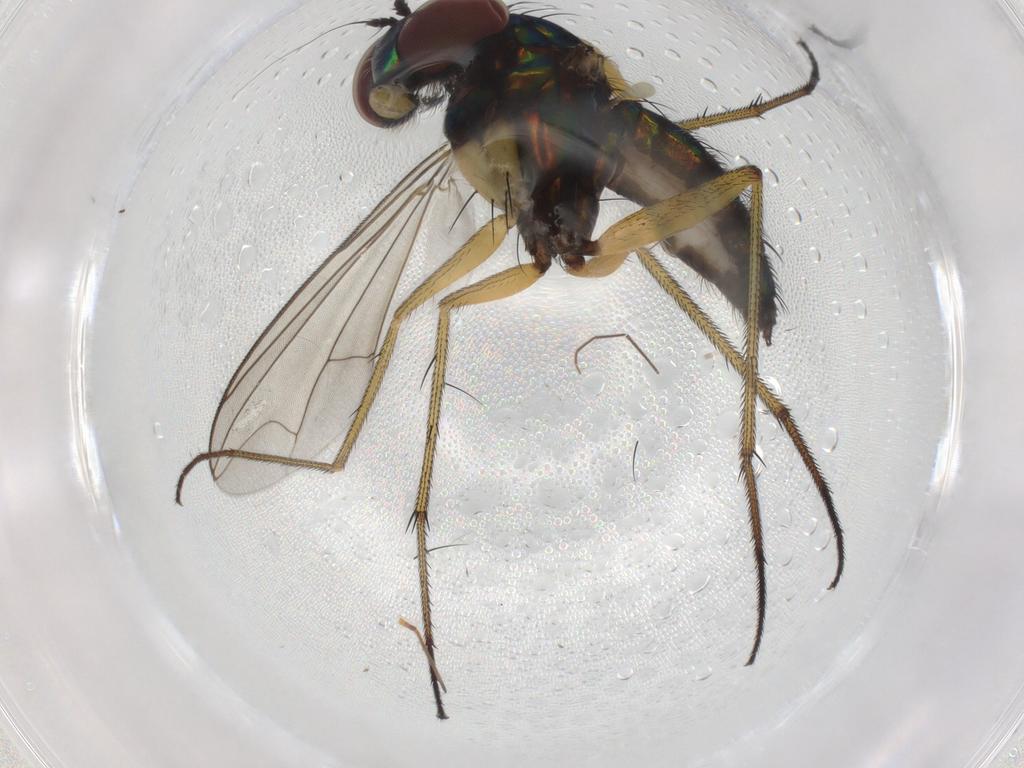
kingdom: Animalia
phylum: Arthropoda
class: Insecta
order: Diptera
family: Dolichopodidae
